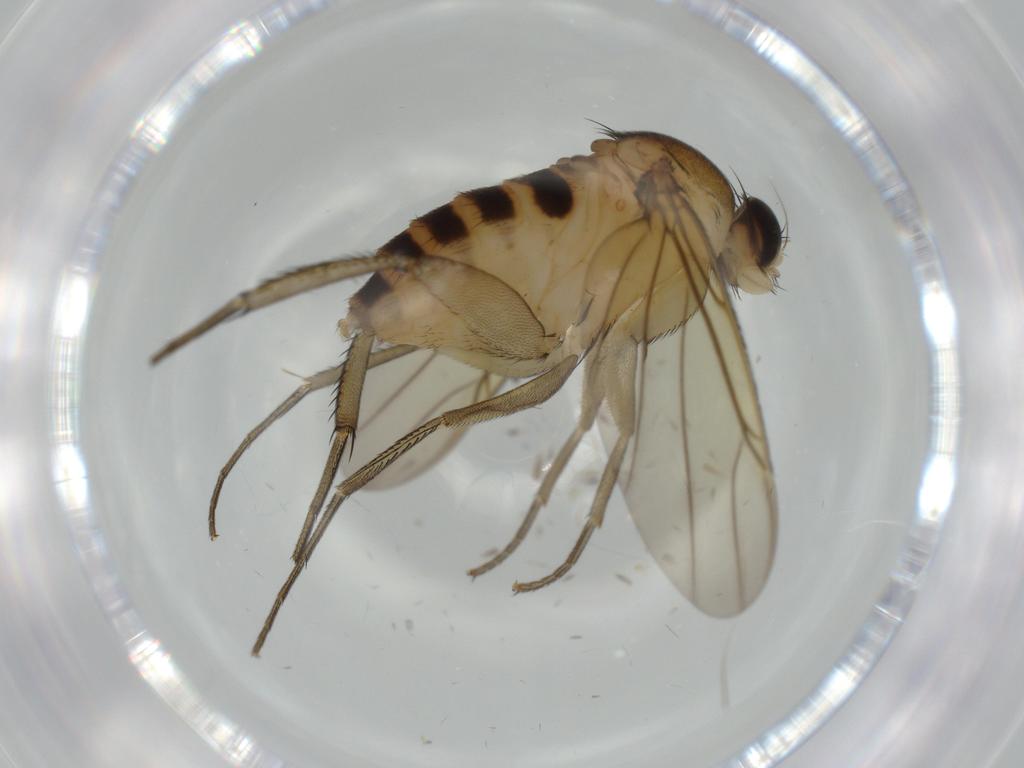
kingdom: Animalia
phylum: Arthropoda
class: Insecta
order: Diptera
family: Phoridae
